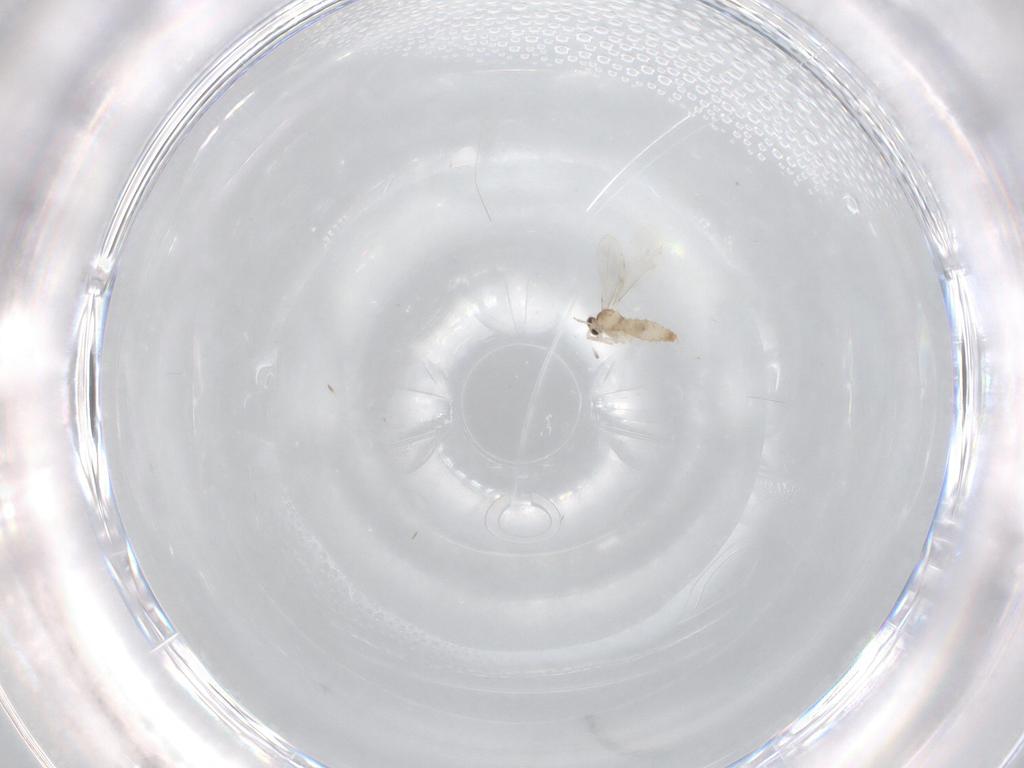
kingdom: Animalia
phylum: Arthropoda
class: Insecta
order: Diptera
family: Cecidomyiidae
